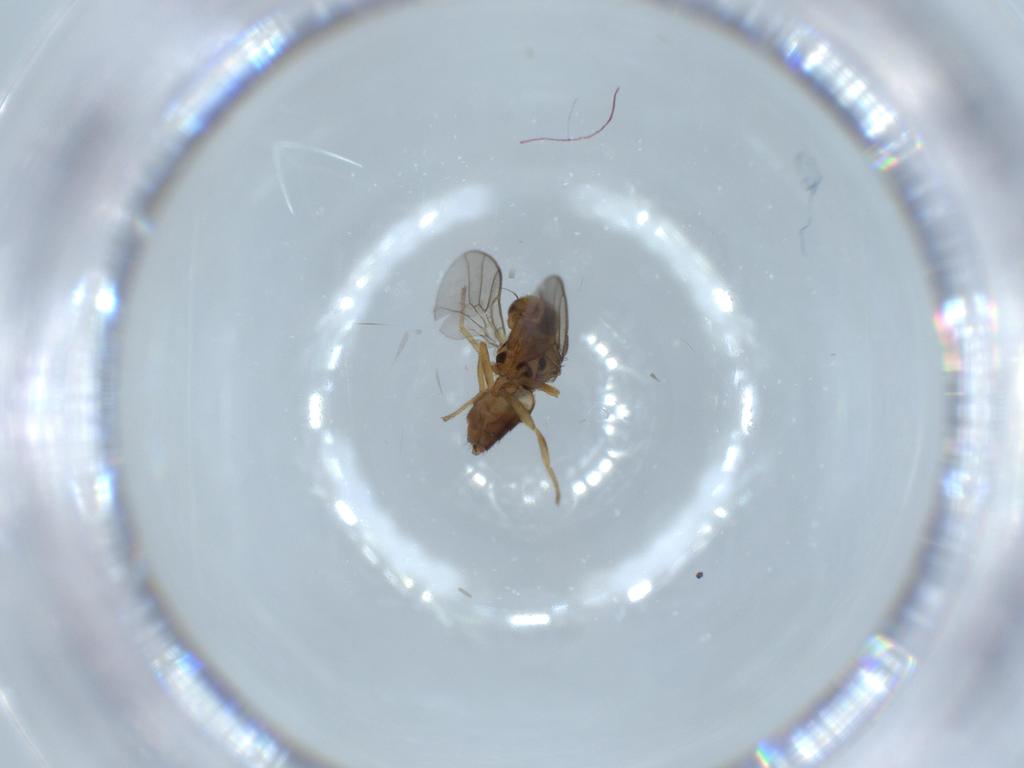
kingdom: Animalia
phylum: Arthropoda
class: Insecta
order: Diptera
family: Chloropidae
